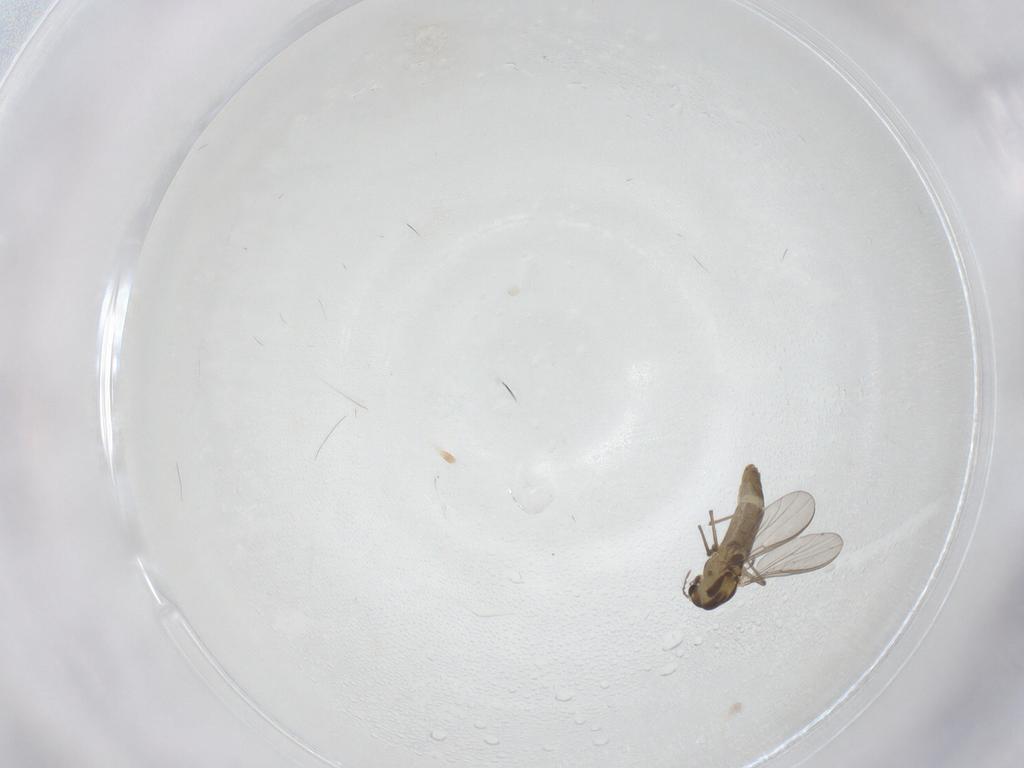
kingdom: Animalia
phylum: Arthropoda
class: Insecta
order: Diptera
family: Chironomidae
